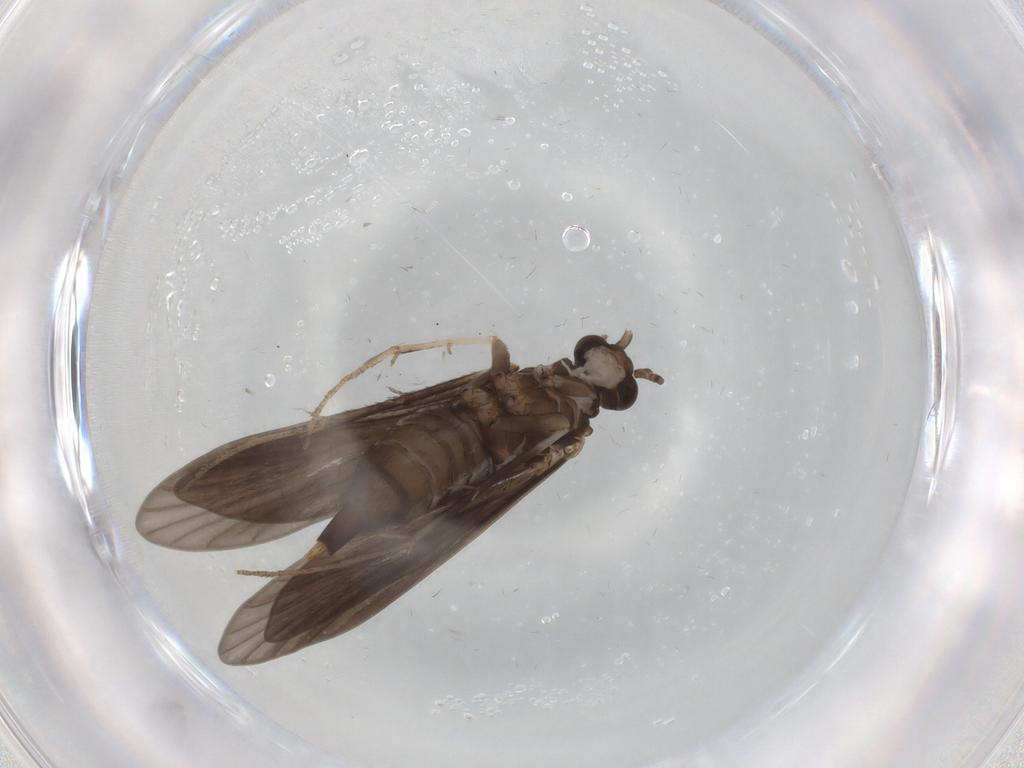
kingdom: Animalia
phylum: Arthropoda
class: Insecta
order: Trichoptera
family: Xiphocentronidae
